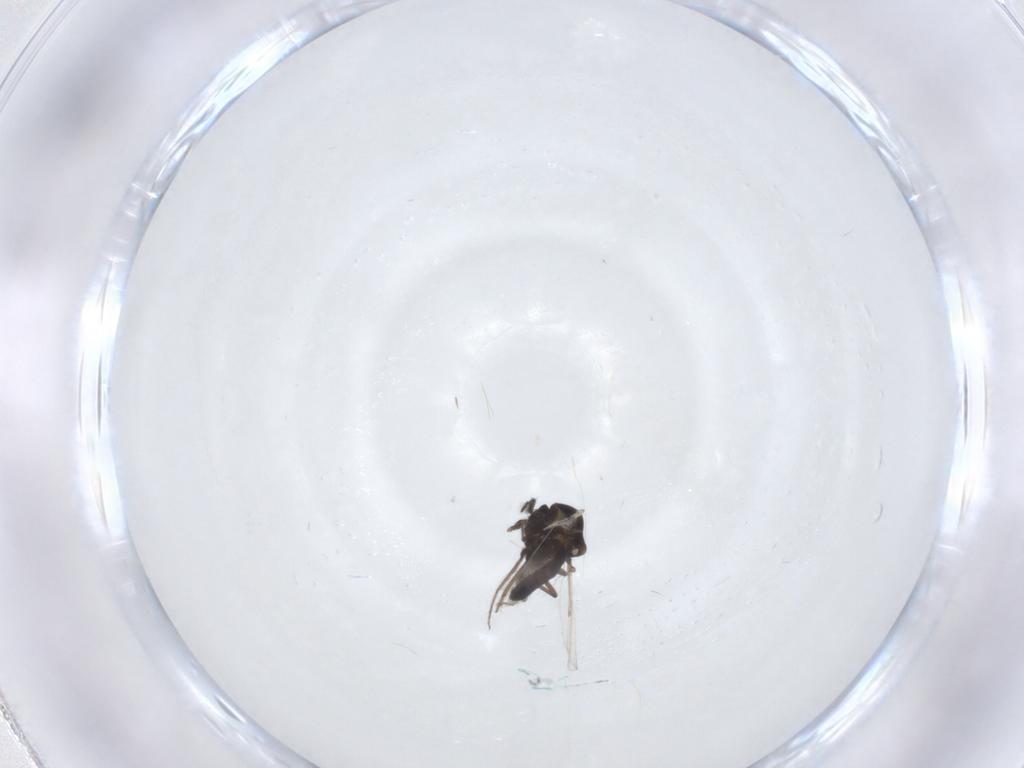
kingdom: Animalia
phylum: Arthropoda
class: Insecta
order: Diptera
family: Ceratopogonidae
